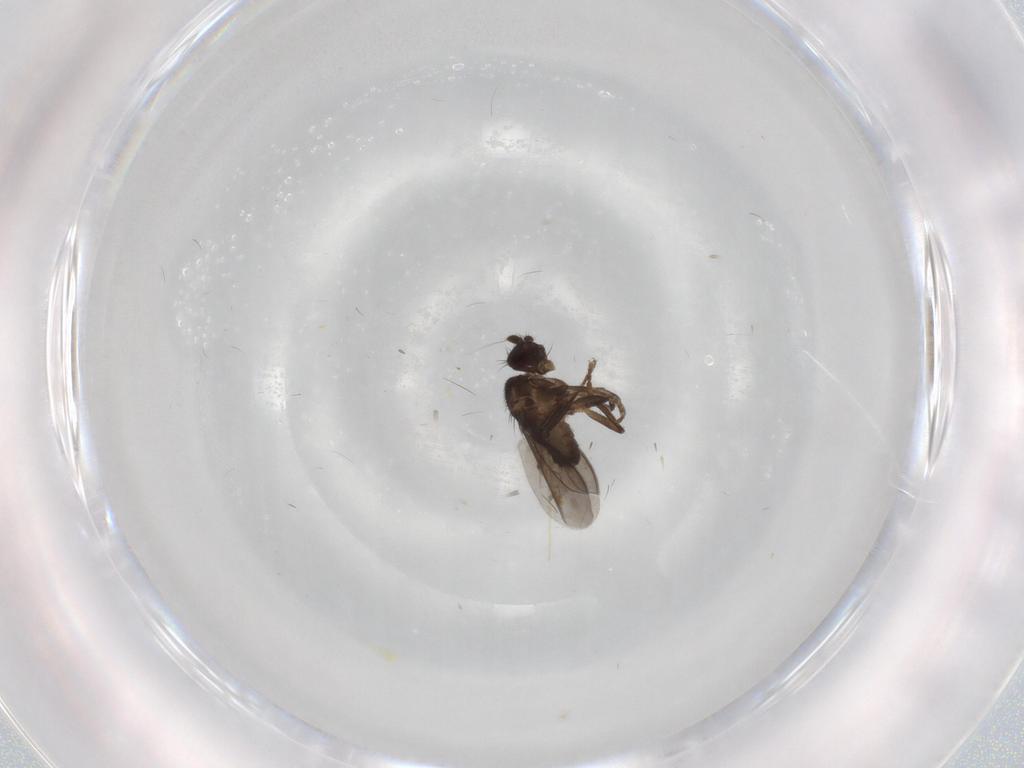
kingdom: Animalia
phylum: Arthropoda
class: Insecta
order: Diptera
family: Sphaeroceridae
